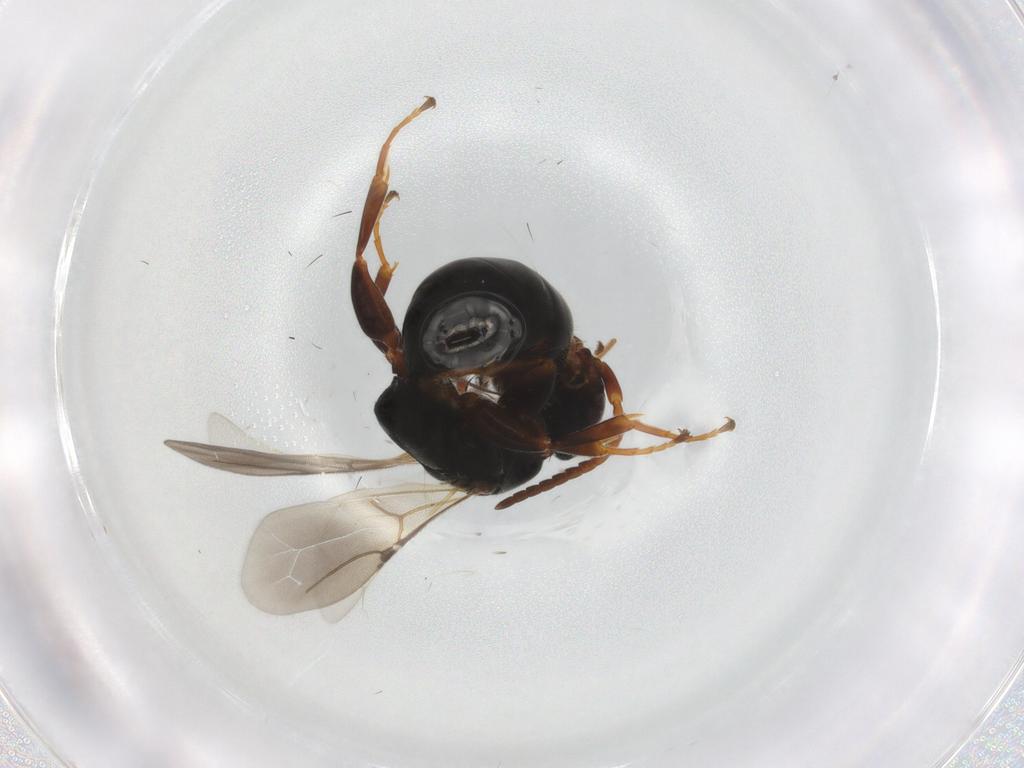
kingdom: Animalia
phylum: Arthropoda
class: Insecta
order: Hymenoptera
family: Bethylidae
